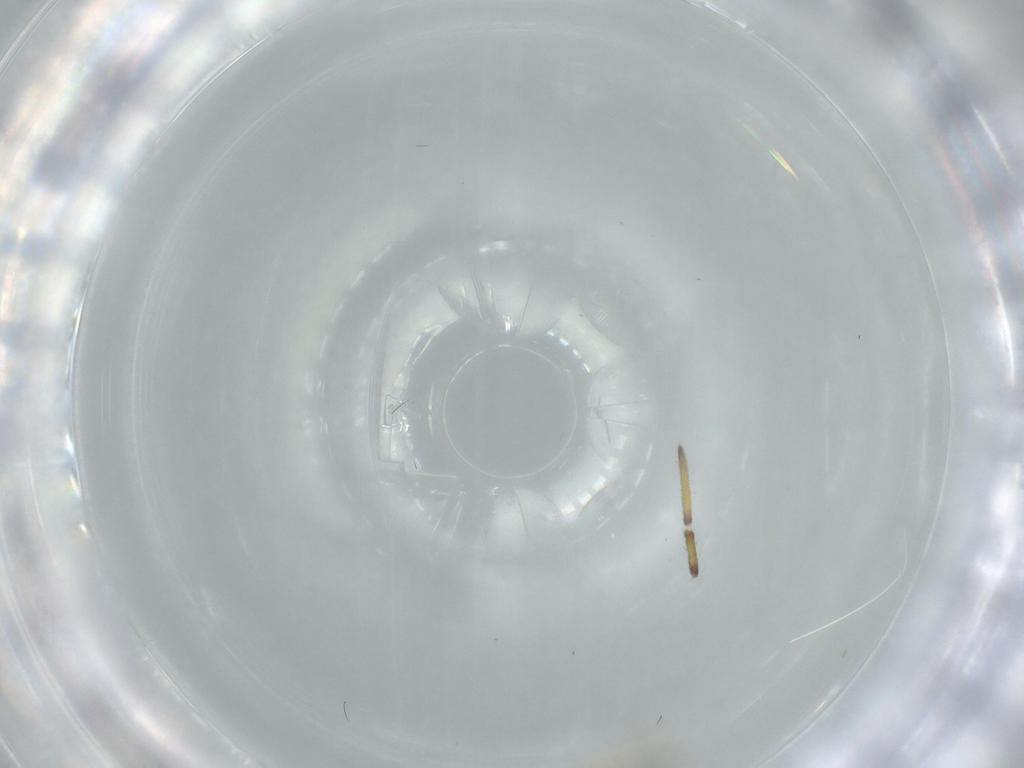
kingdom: Animalia
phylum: Arthropoda
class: Insecta
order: Diptera
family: Cecidomyiidae
